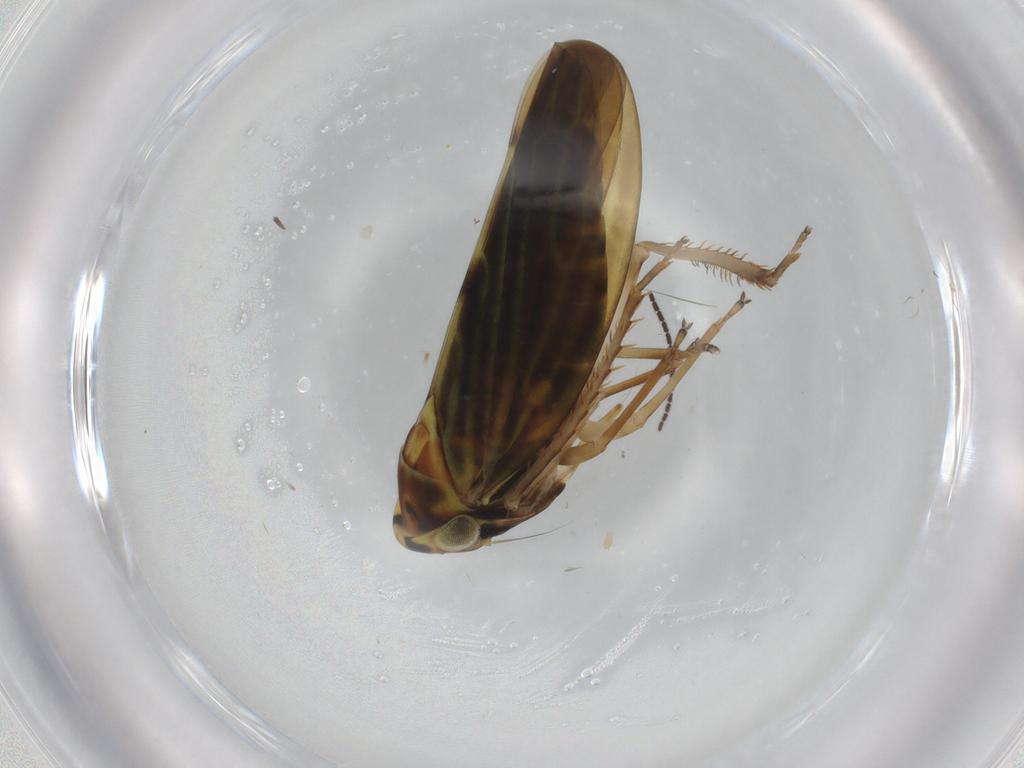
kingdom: Animalia
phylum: Arthropoda
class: Insecta
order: Hemiptera
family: Cicadellidae
